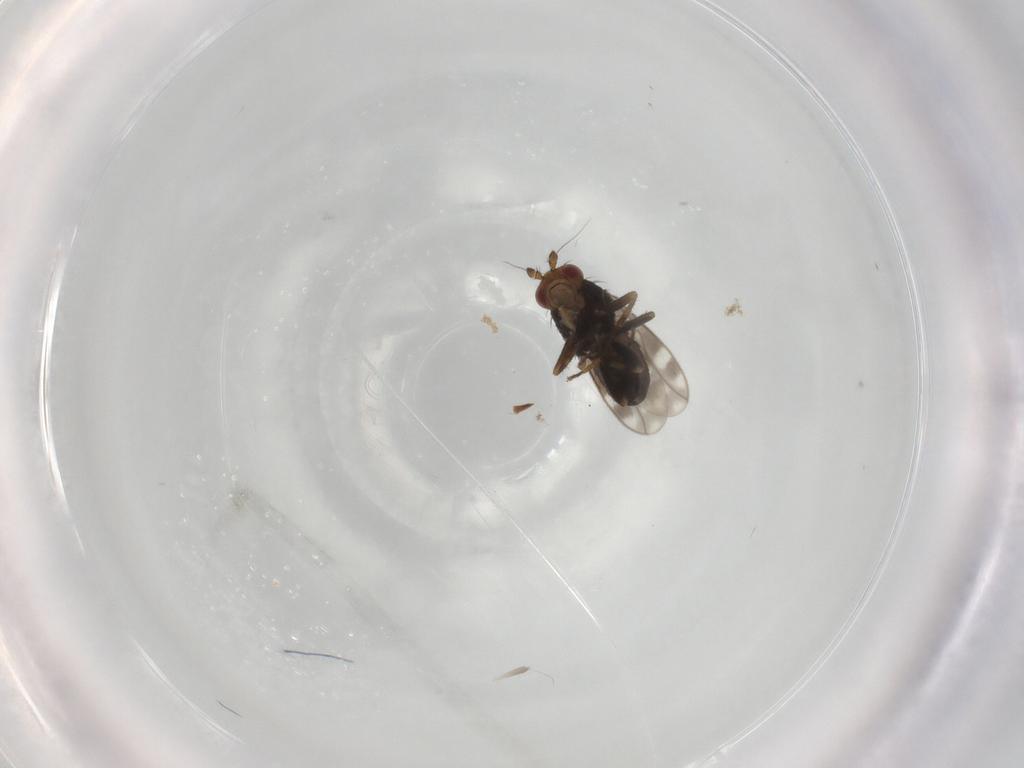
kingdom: Animalia
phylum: Arthropoda
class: Insecta
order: Diptera
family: Sphaeroceridae
